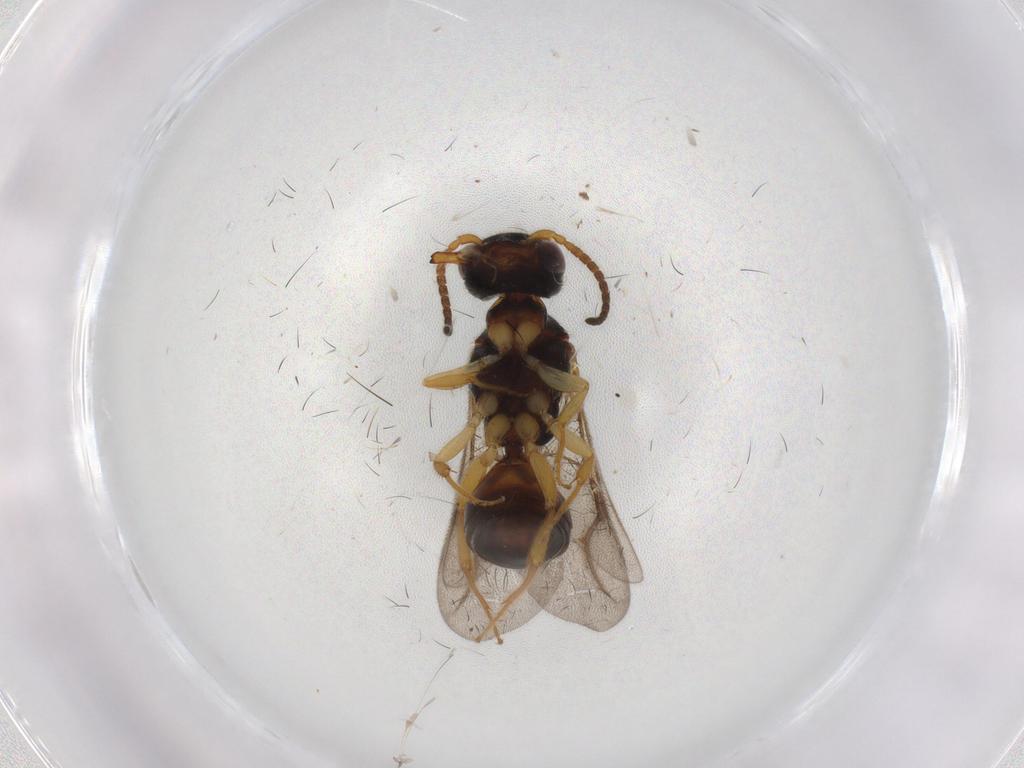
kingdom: Animalia
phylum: Arthropoda
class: Insecta
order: Hymenoptera
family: Bethylidae
